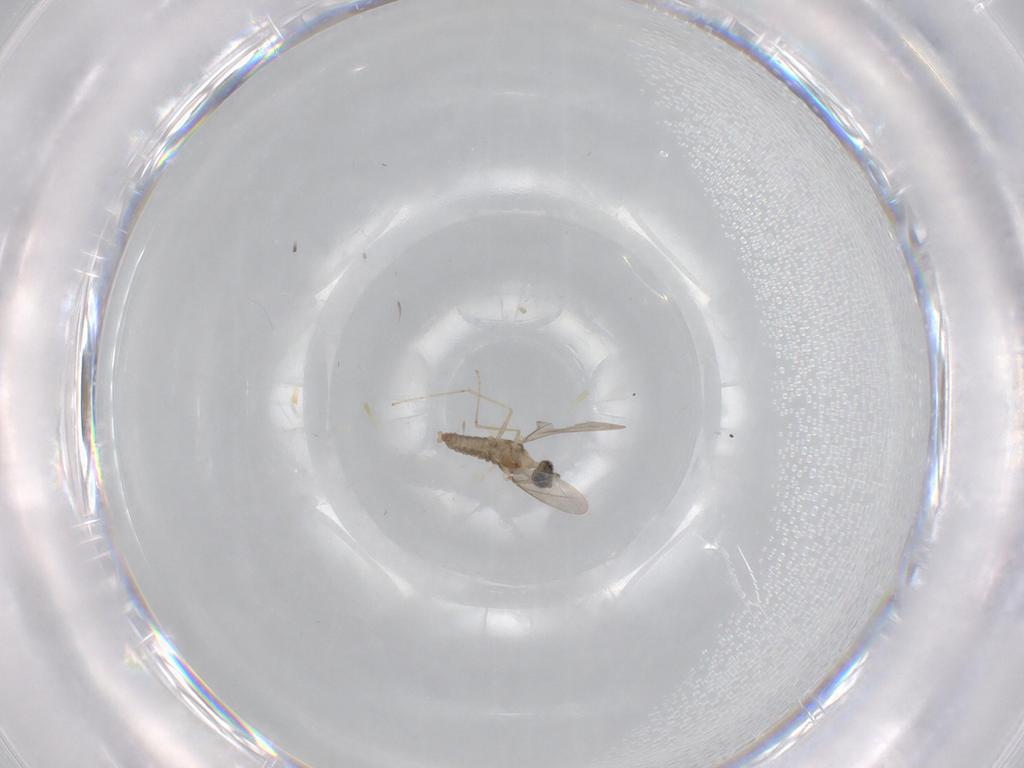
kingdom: Animalia
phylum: Arthropoda
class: Insecta
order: Diptera
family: Cecidomyiidae
